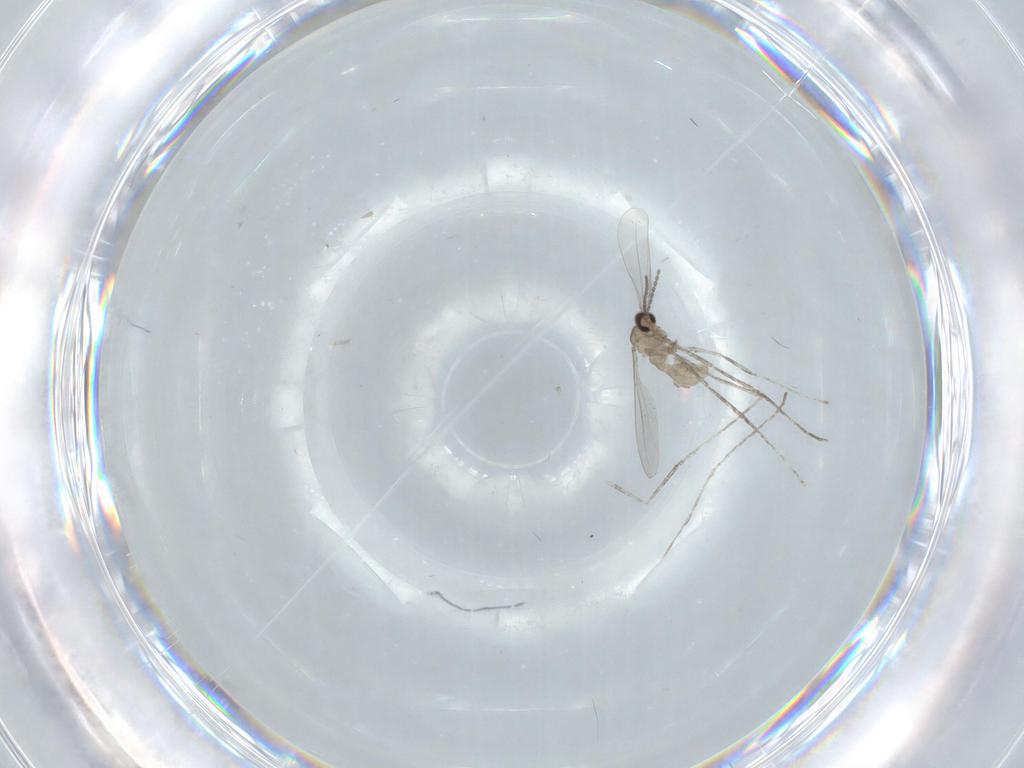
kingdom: Animalia
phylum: Arthropoda
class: Insecta
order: Diptera
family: Cecidomyiidae
